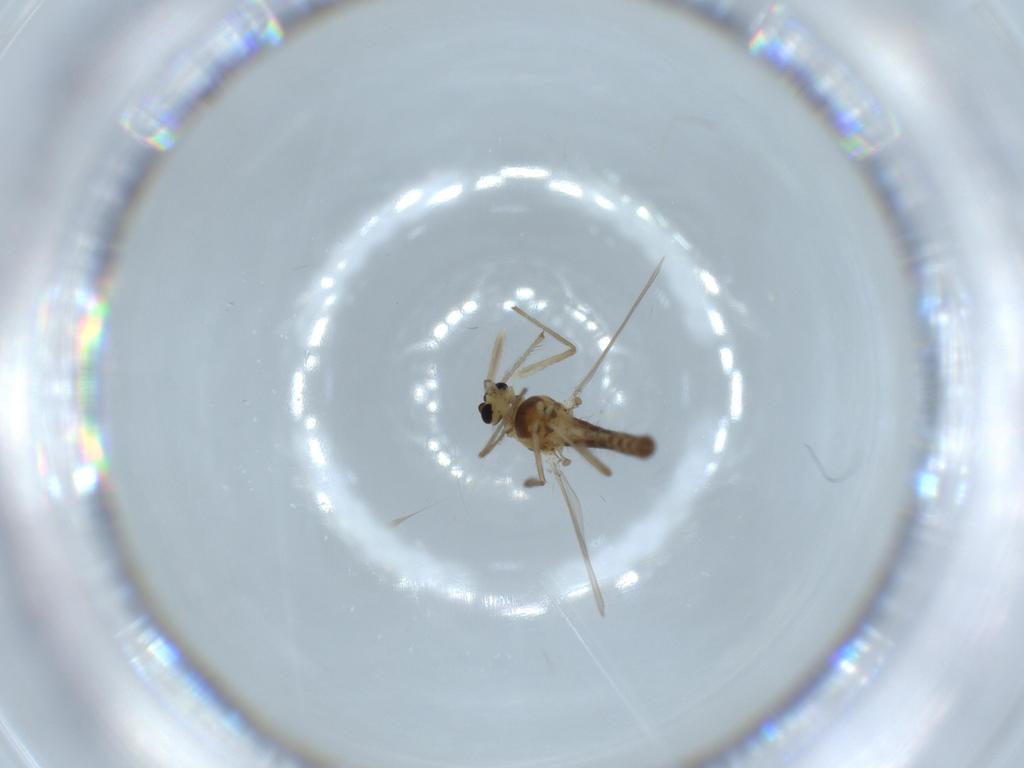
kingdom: Animalia
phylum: Arthropoda
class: Insecta
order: Diptera
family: Chironomidae
